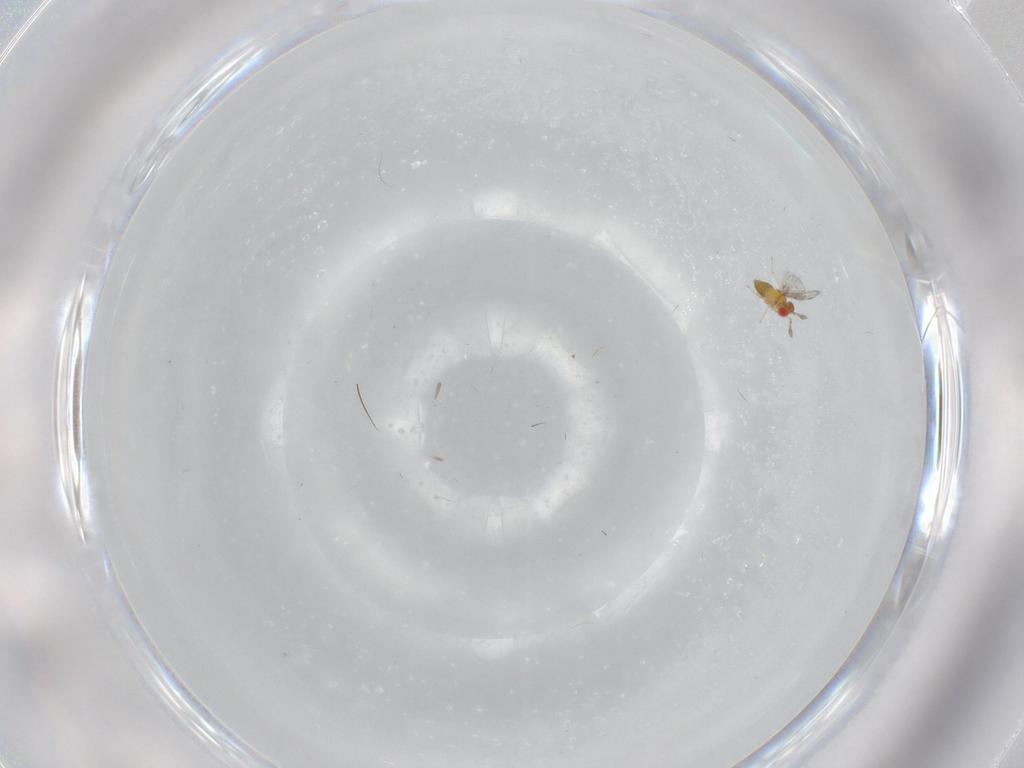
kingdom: Animalia
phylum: Arthropoda
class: Insecta
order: Hymenoptera
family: Trichogrammatidae
